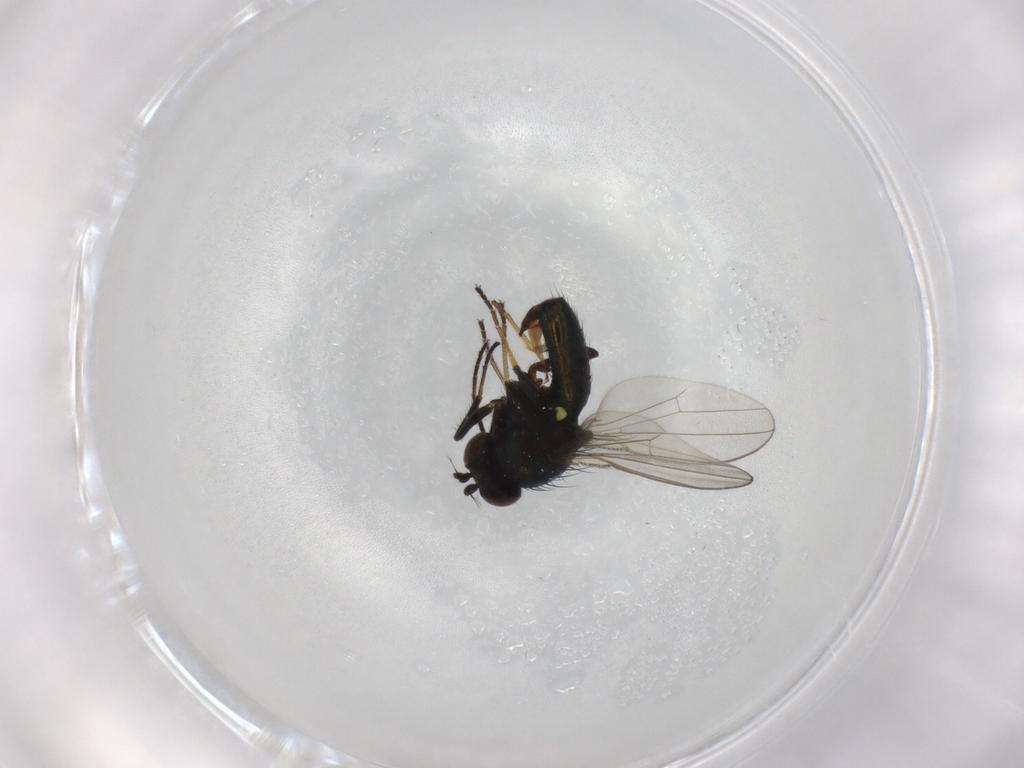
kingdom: Animalia
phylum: Arthropoda
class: Insecta
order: Diptera
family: Ephydridae
